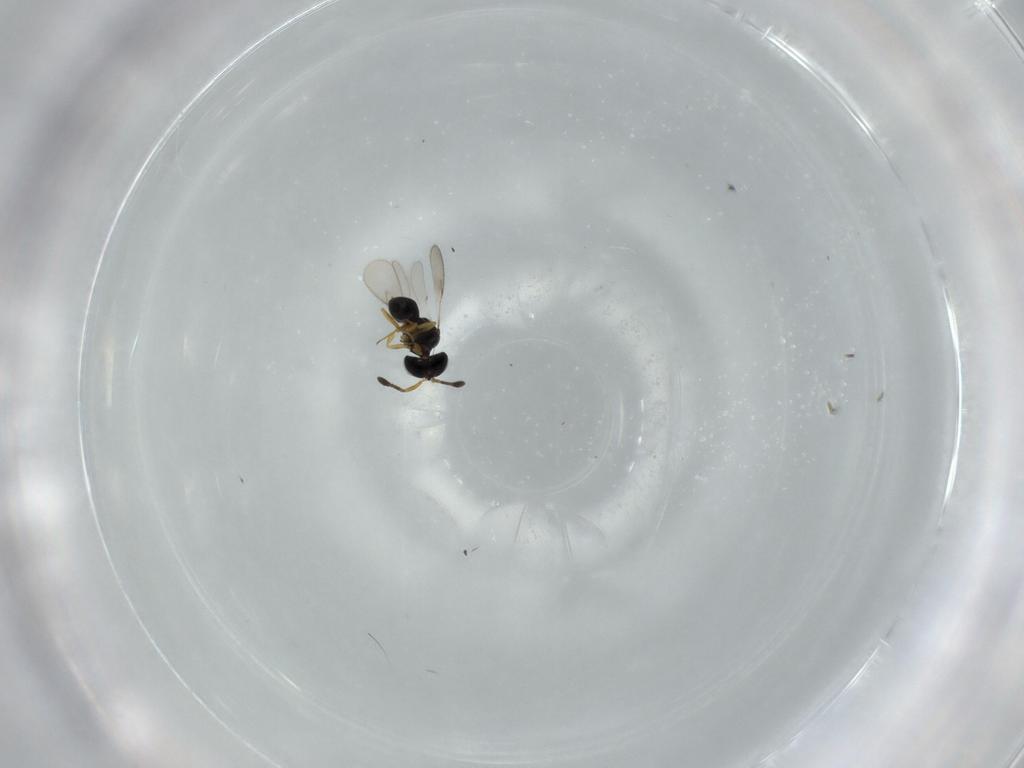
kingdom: Animalia
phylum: Arthropoda
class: Insecta
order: Hymenoptera
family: Scelionidae
